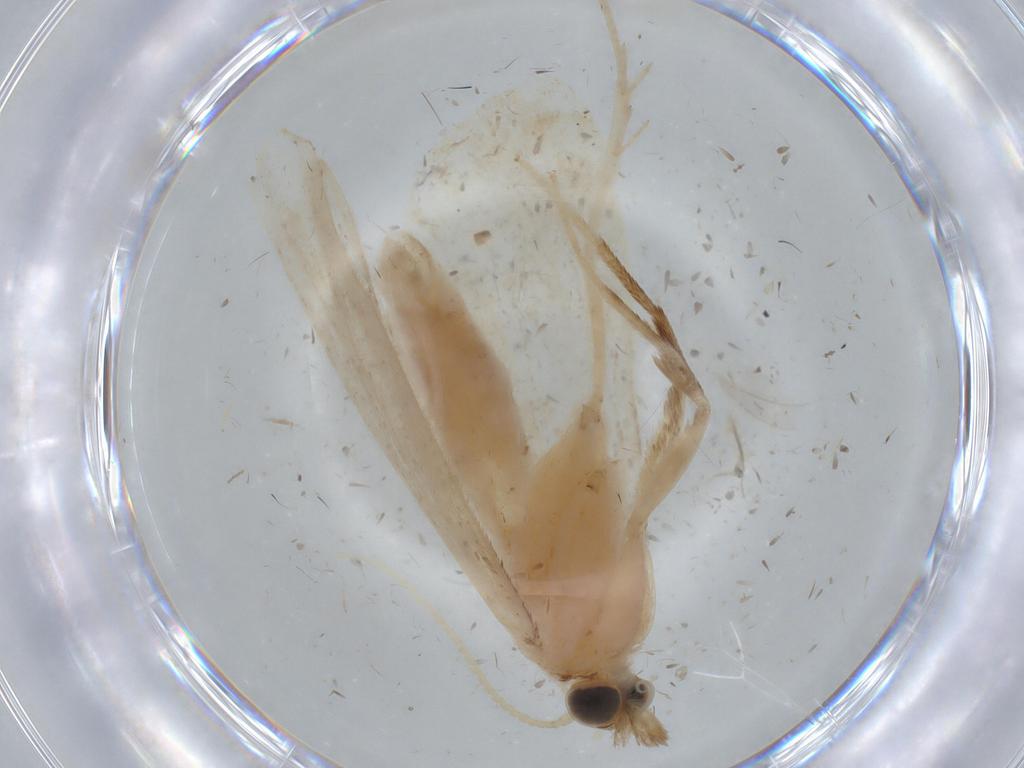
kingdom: Animalia
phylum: Arthropoda
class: Insecta
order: Lepidoptera
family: Crambidae
